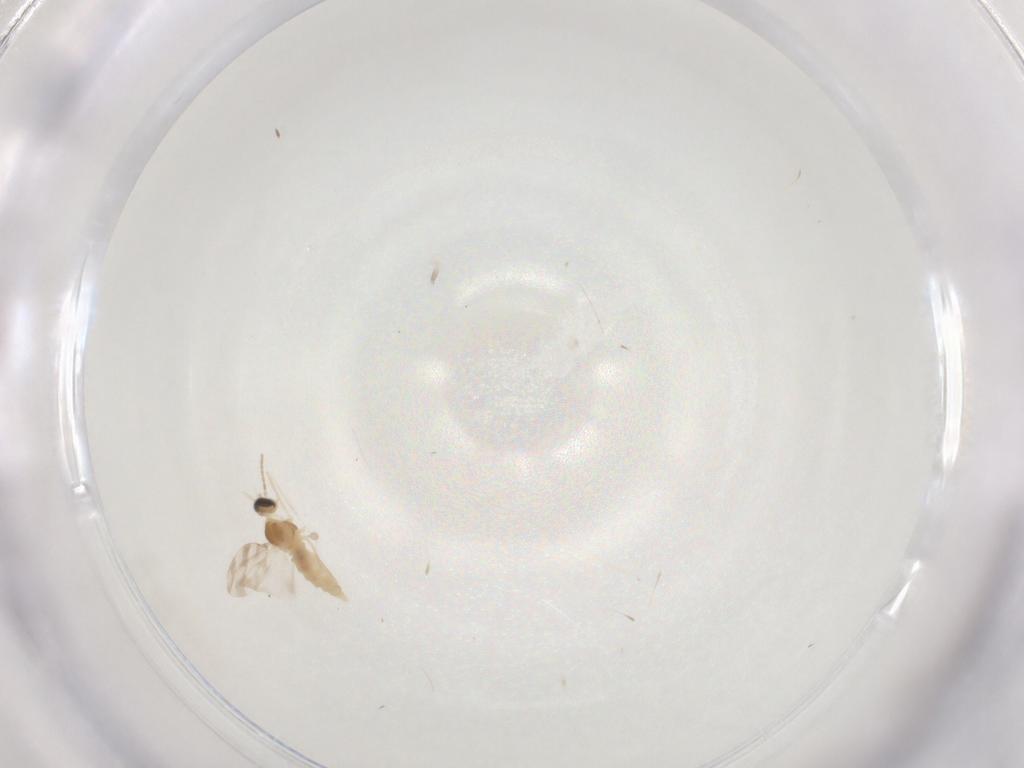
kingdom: Animalia
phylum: Arthropoda
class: Insecta
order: Diptera
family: Cecidomyiidae
